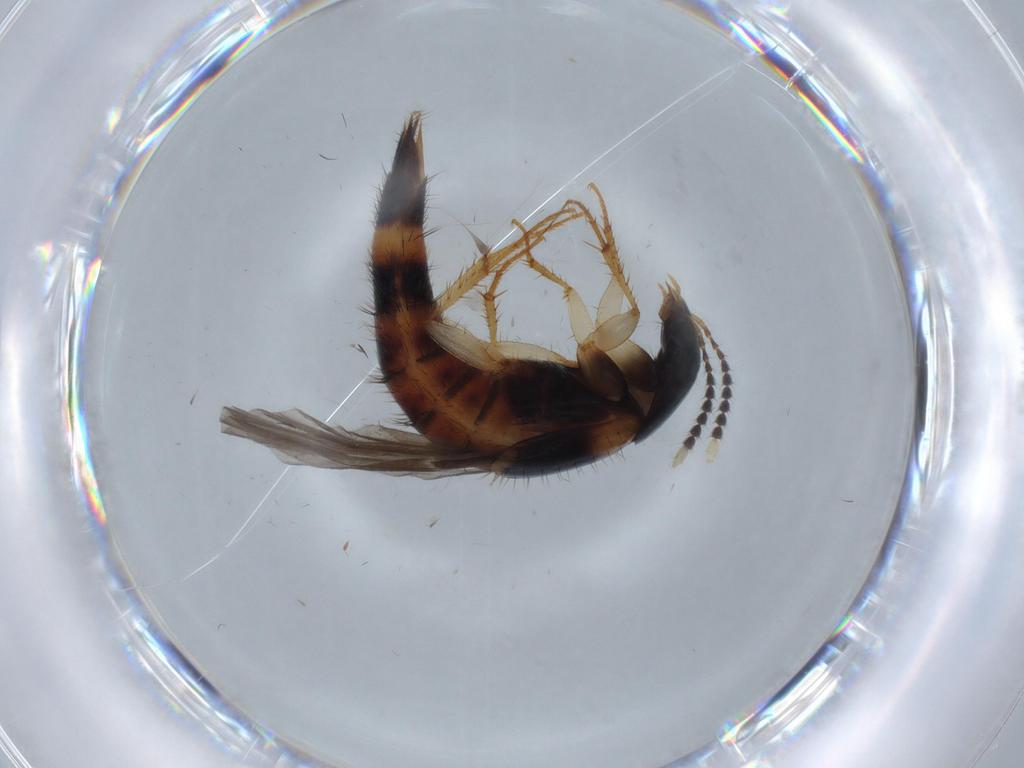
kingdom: Animalia
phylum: Arthropoda
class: Insecta
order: Coleoptera
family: Staphylinidae
